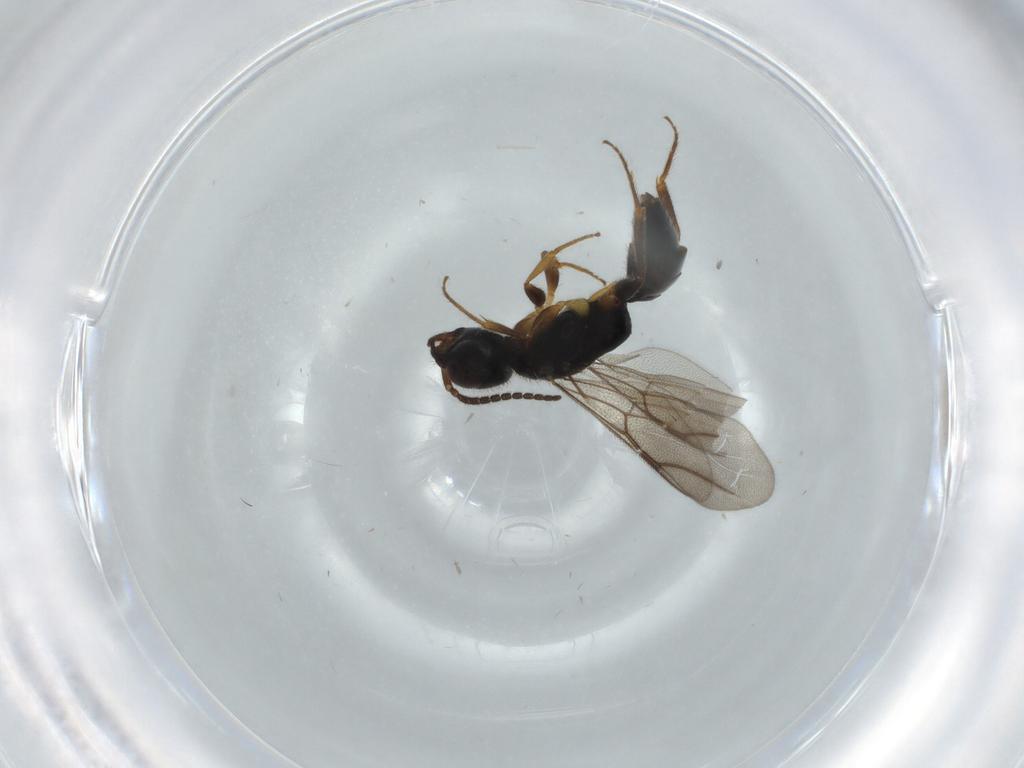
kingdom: Animalia
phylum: Arthropoda
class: Insecta
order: Hymenoptera
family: Bethylidae
